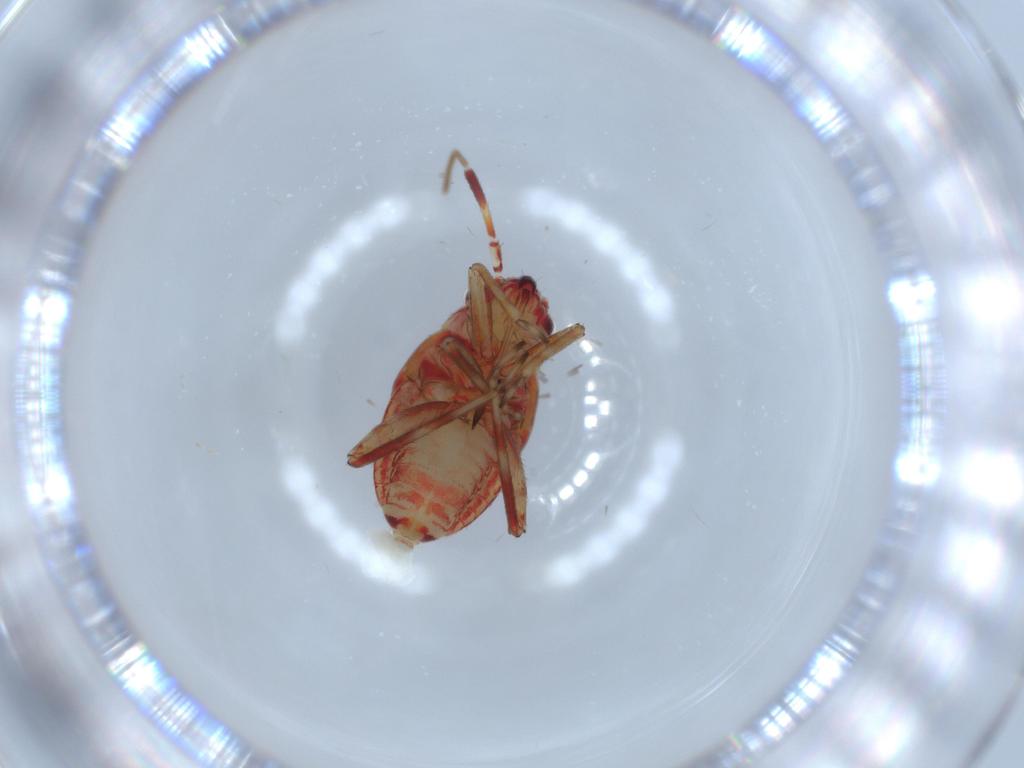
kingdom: Animalia
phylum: Arthropoda
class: Insecta
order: Hemiptera
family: Miridae
